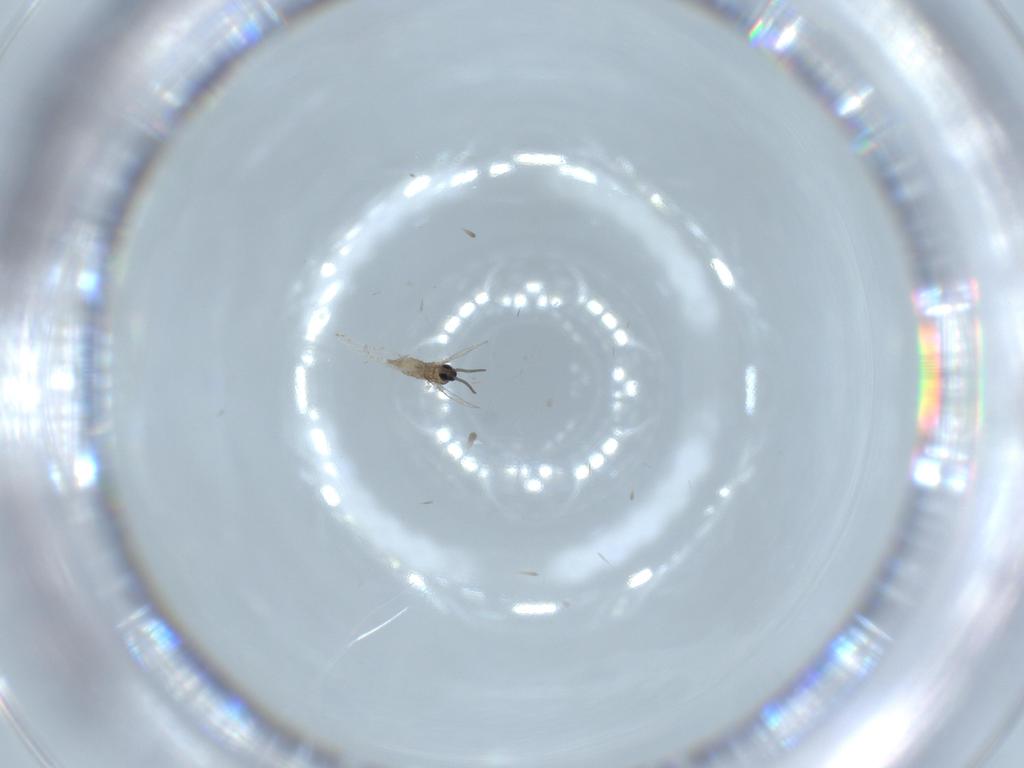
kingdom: Animalia
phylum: Arthropoda
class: Insecta
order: Diptera
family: Cecidomyiidae
